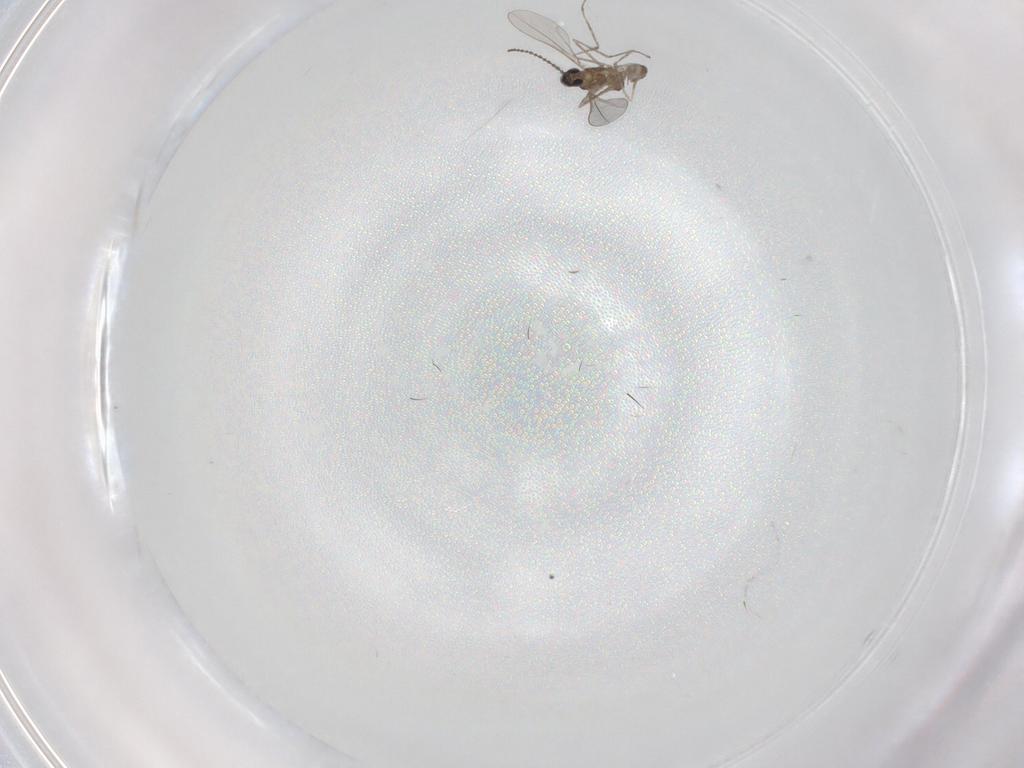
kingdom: Animalia
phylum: Arthropoda
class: Insecta
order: Diptera
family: Cecidomyiidae
